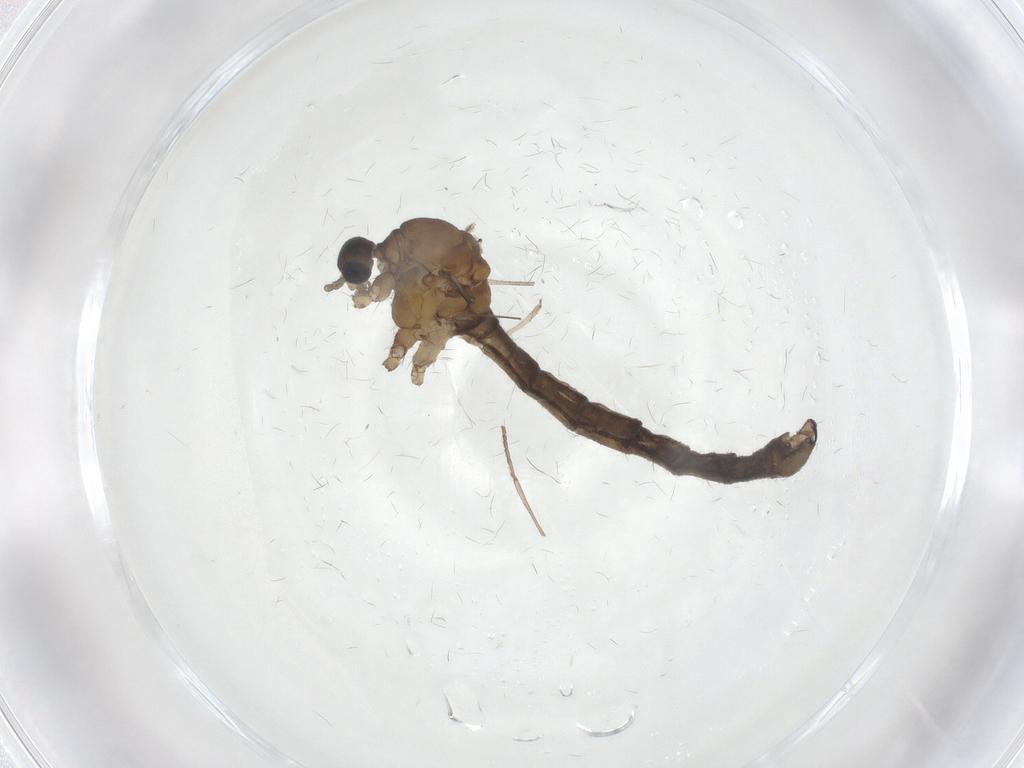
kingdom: Animalia
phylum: Arthropoda
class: Insecta
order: Diptera
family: Limoniidae
